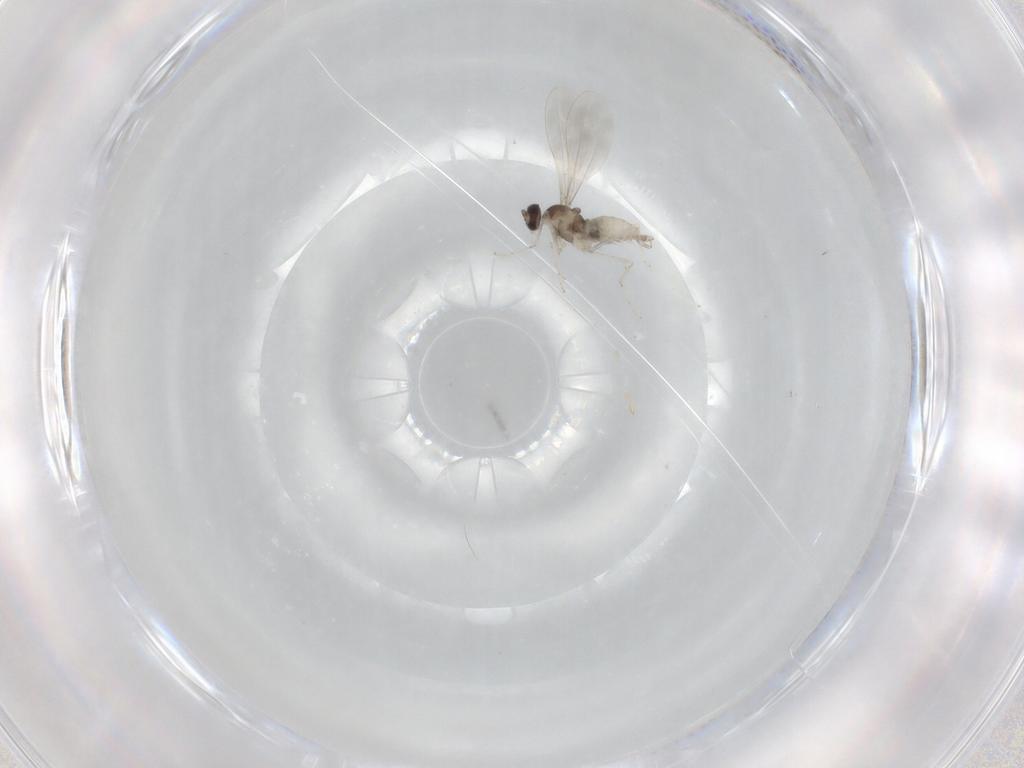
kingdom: Animalia
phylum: Arthropoda
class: Insecta
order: Diptera
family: Cecidomyiidae
